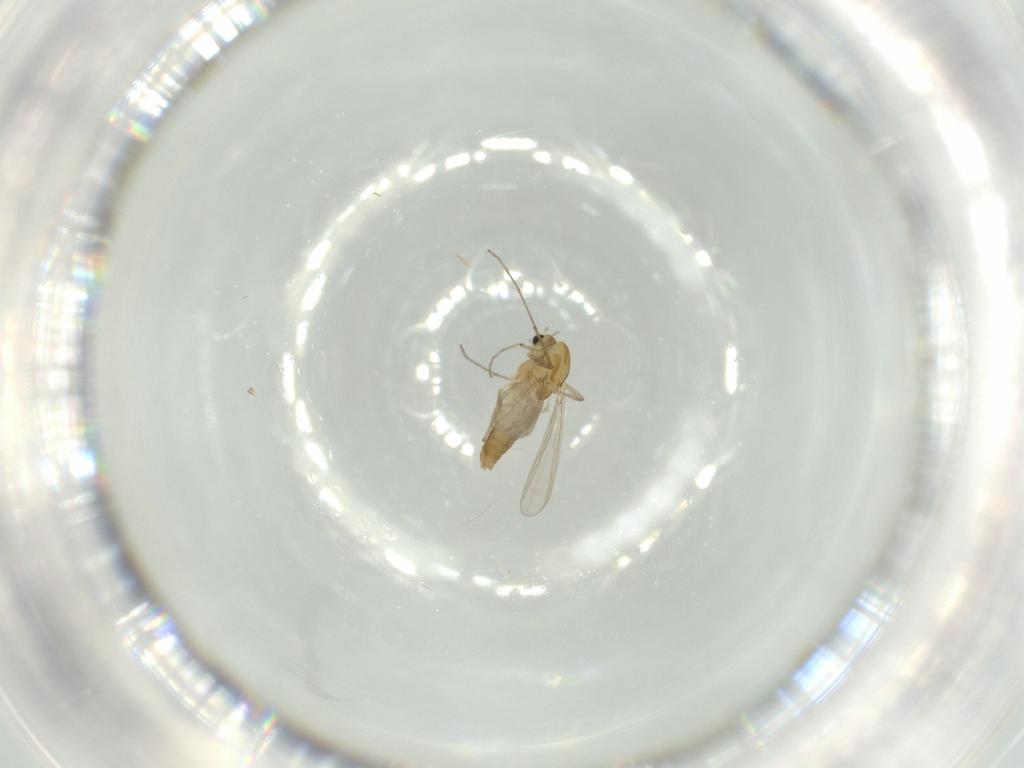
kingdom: Animalia
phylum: Arthropoda
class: Insecta
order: Diptera
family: Chironomidae
